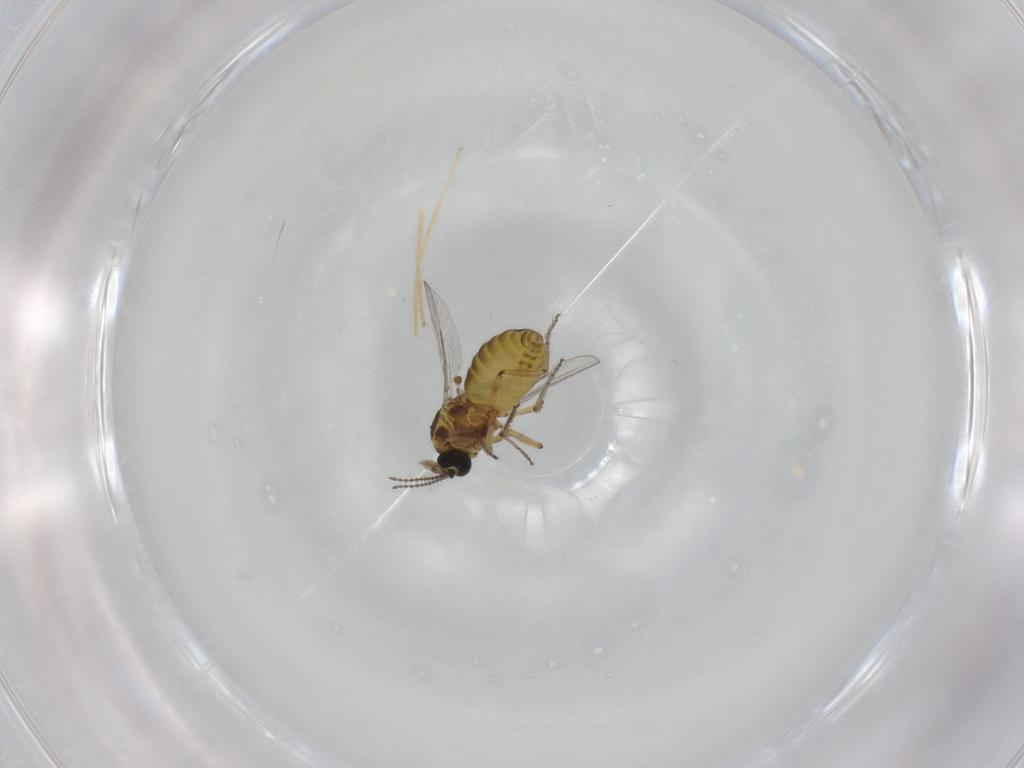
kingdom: Animalia
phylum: Arthropoda
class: Insecta
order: Diptera
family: Ceratopogonidae
